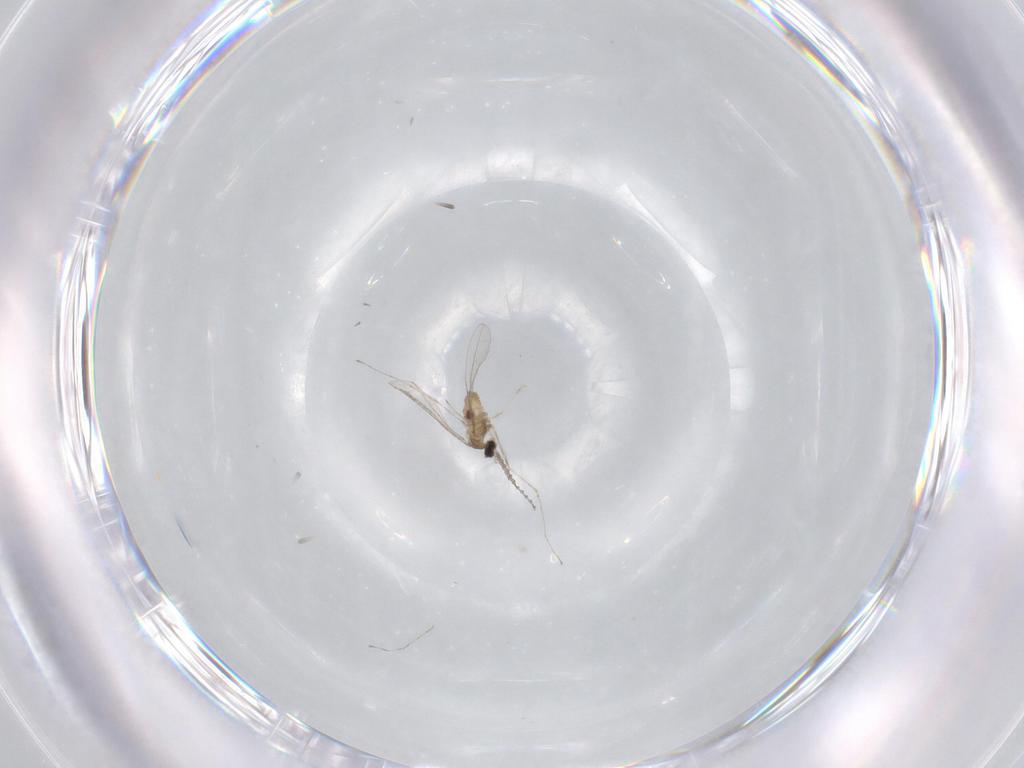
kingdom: Animalia
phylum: Arthropoda
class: Insecta
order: Diptera
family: Cecidomyiidae
